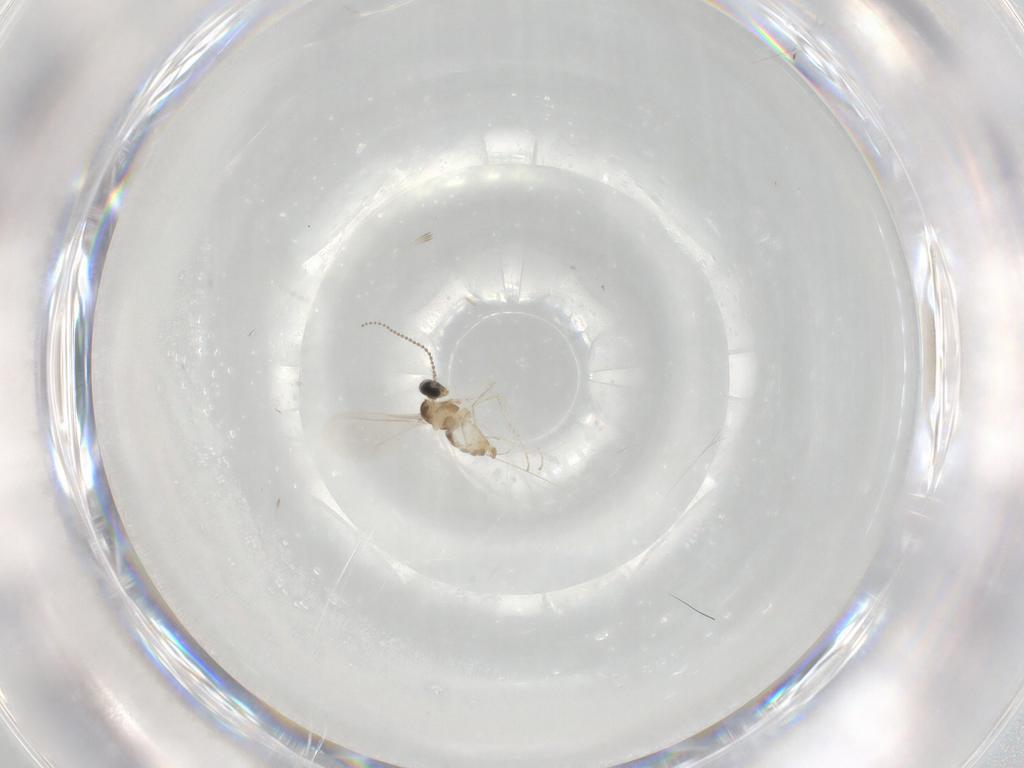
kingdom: Animalia
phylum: Arthropoda
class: Insecta
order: Diptera
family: Cecidomyiidae
